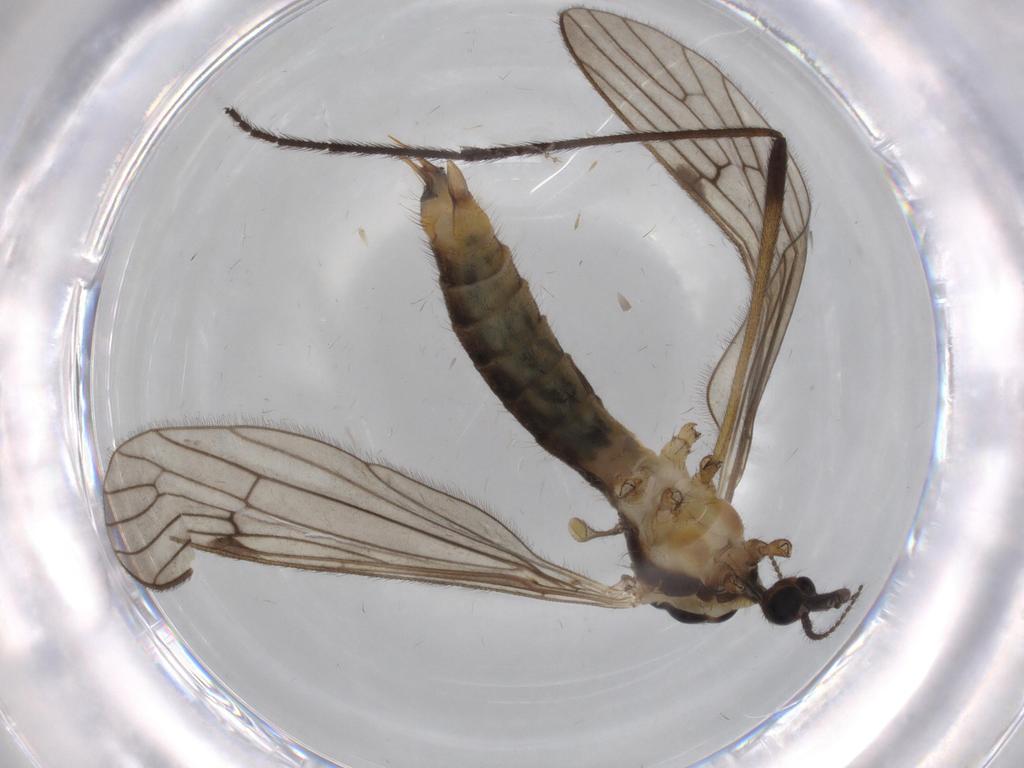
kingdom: Animalia
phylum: Arthropoda
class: Insecta
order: Diptera
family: Limoniidae
